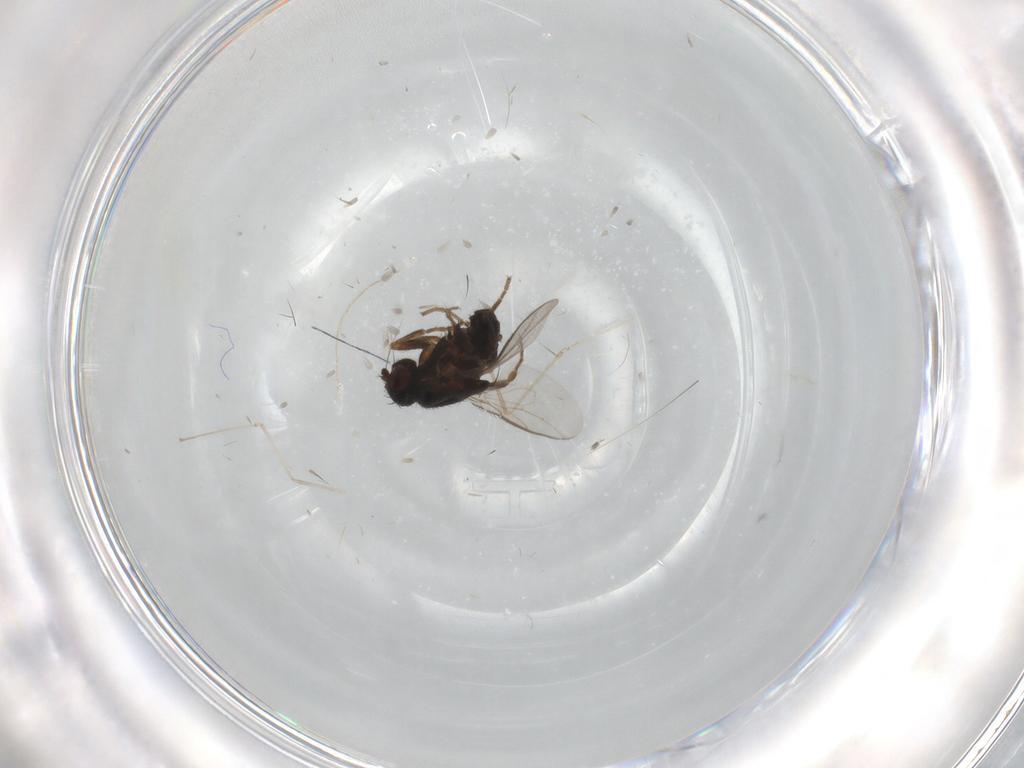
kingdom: Animalia
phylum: Arthropoda
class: Insecta
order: Diptera
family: Sphaeroceridae
